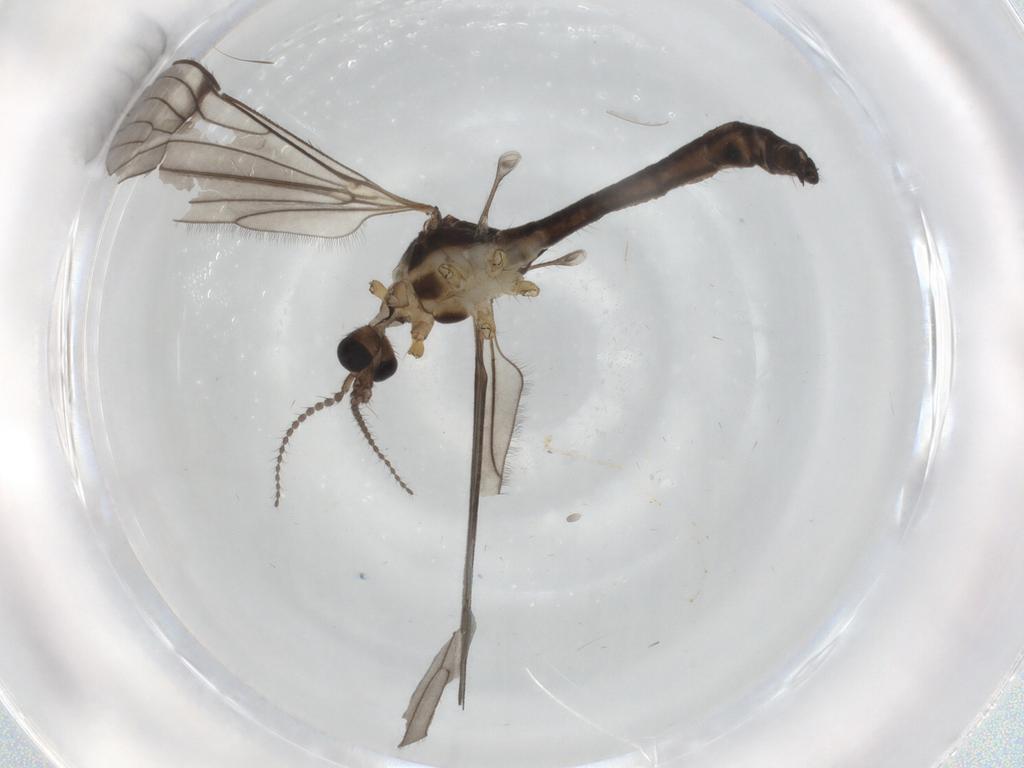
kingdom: Animalia
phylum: Arthropoda
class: Insecta
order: Diptera
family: Limoniidae
